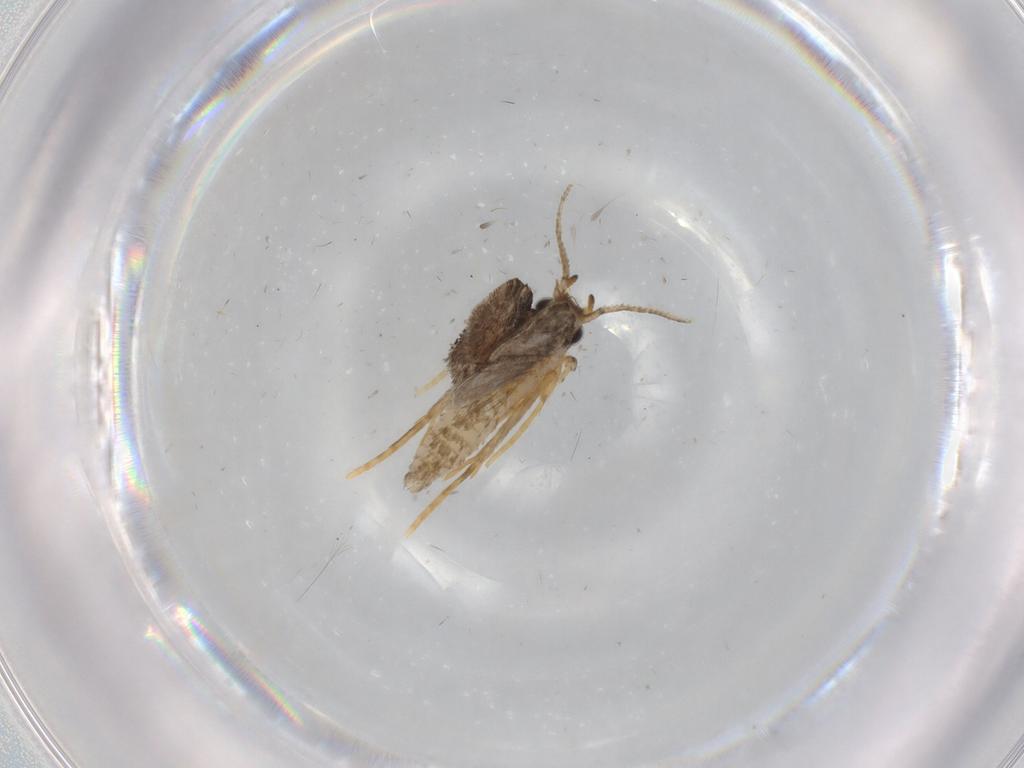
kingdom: Animalia
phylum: Arthropoda
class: Insecta
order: Lepidoptera
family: Psychidae
